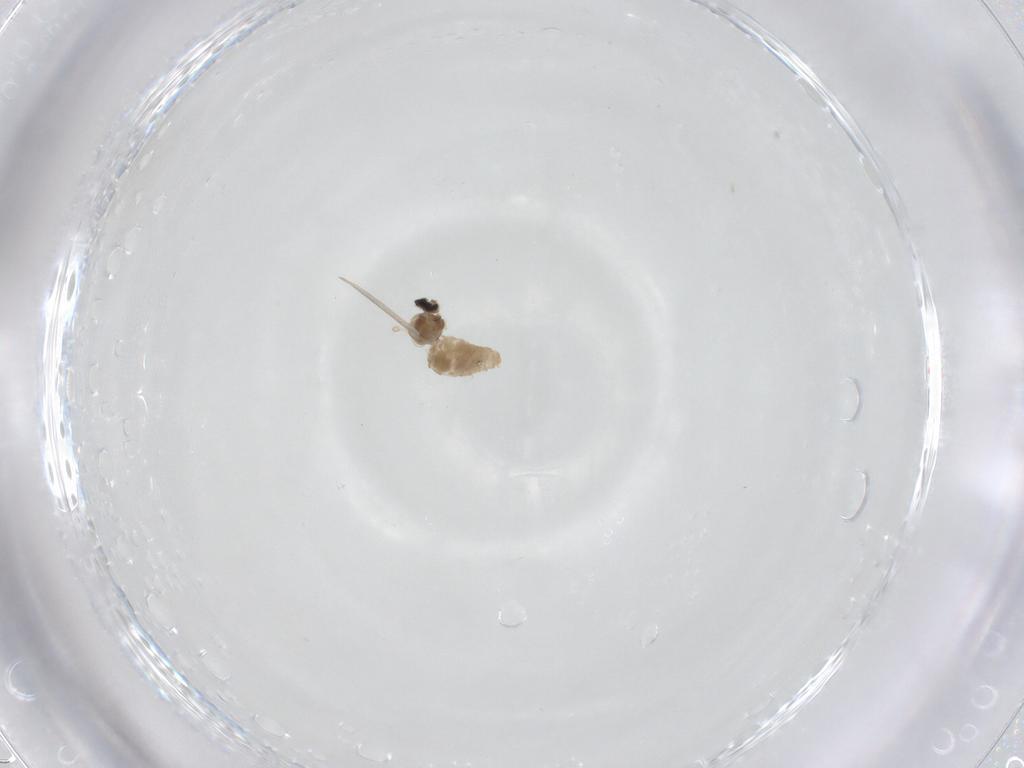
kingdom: Animalia
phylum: Arthropoda
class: Insecta
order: Diptera
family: Cecidomyiidae
